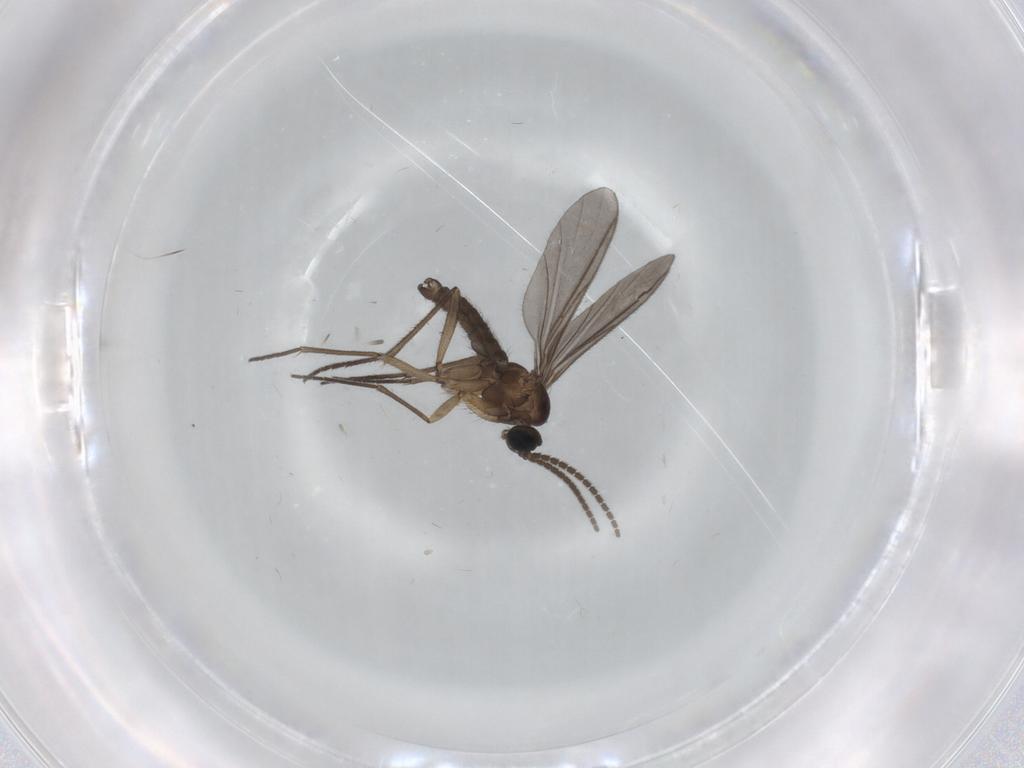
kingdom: Animalia
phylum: Arthropoda
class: Insecta
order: Diptera
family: Sciaridae
